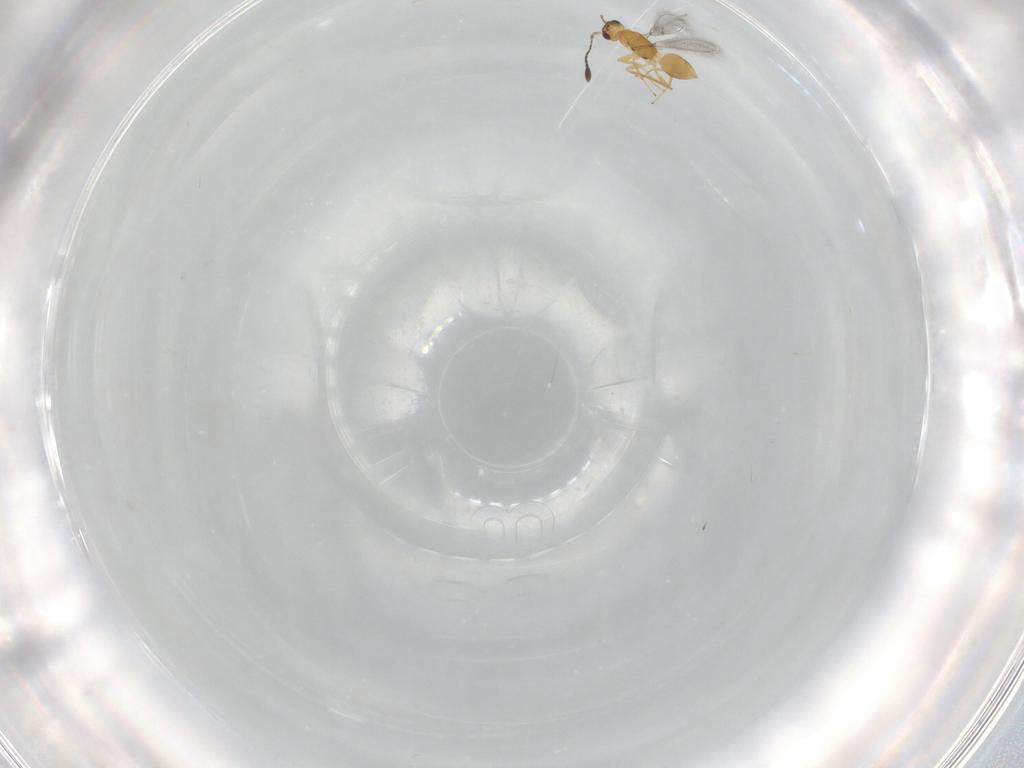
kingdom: Animalia
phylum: Arthropoda
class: Insecta
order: Hymenoptera
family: Mymaridae
